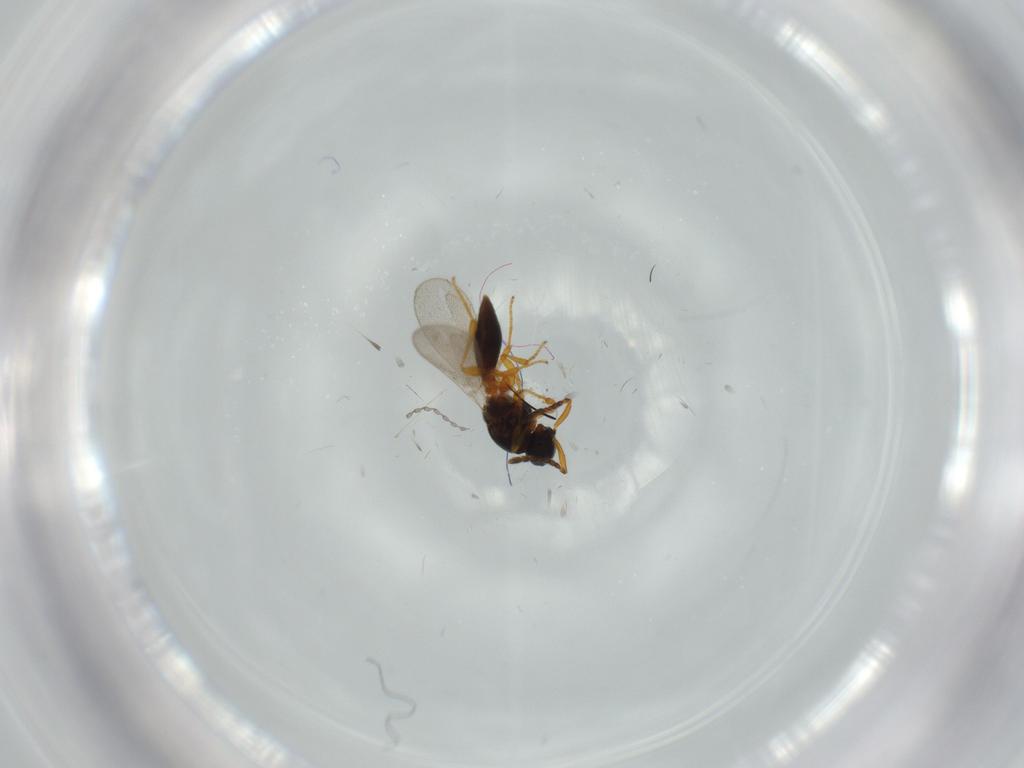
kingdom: Animalia
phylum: Arthropoda
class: Insecta
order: Hymenoptera
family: Platygastridae
